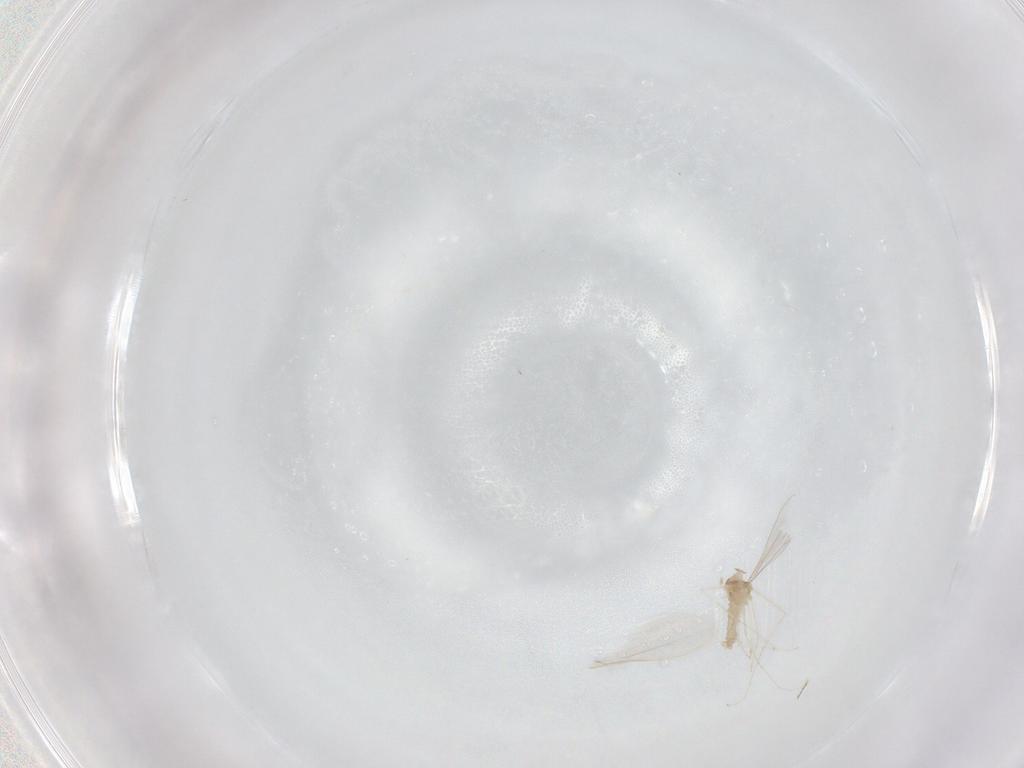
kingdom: Animalia
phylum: Arthropoda
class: Insecta
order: Diptera
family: Cecidomyiidae
